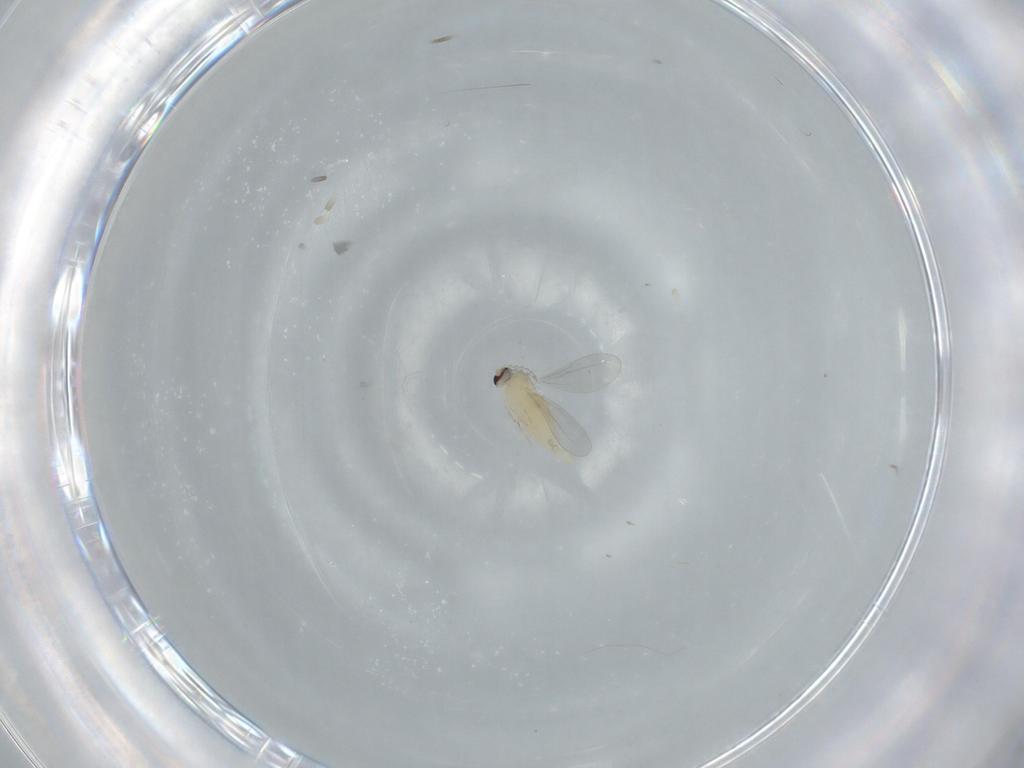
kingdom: Animalia
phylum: Arthropoda
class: Insecta
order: Diptera
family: Cecidomyiidae
